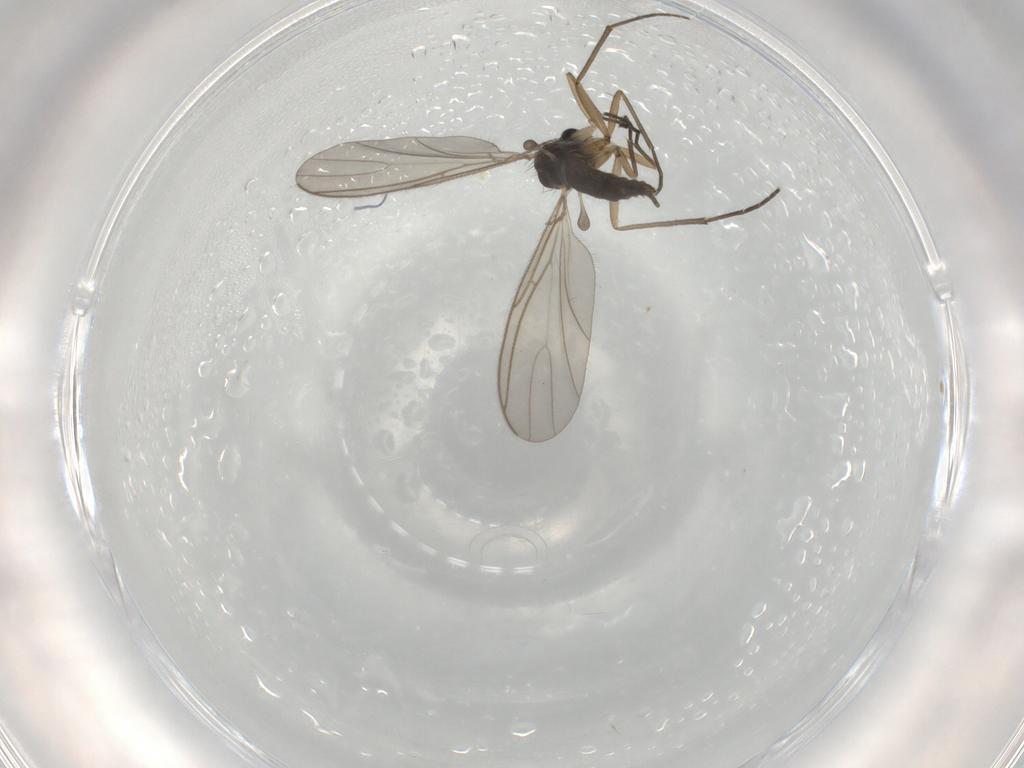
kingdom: Animalia
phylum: Arthropoda
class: Insecta
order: Diptera
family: Sciaridae
